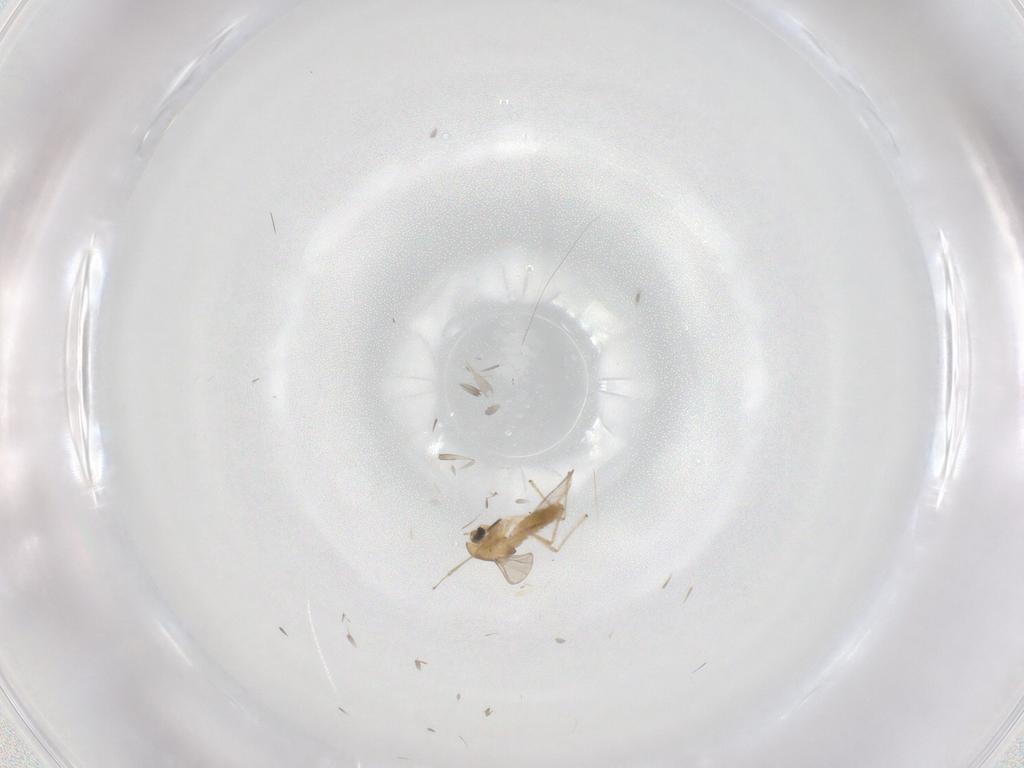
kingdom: Animalia
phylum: Arthropoda
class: Insecta
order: Diptera
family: Chironomidae
